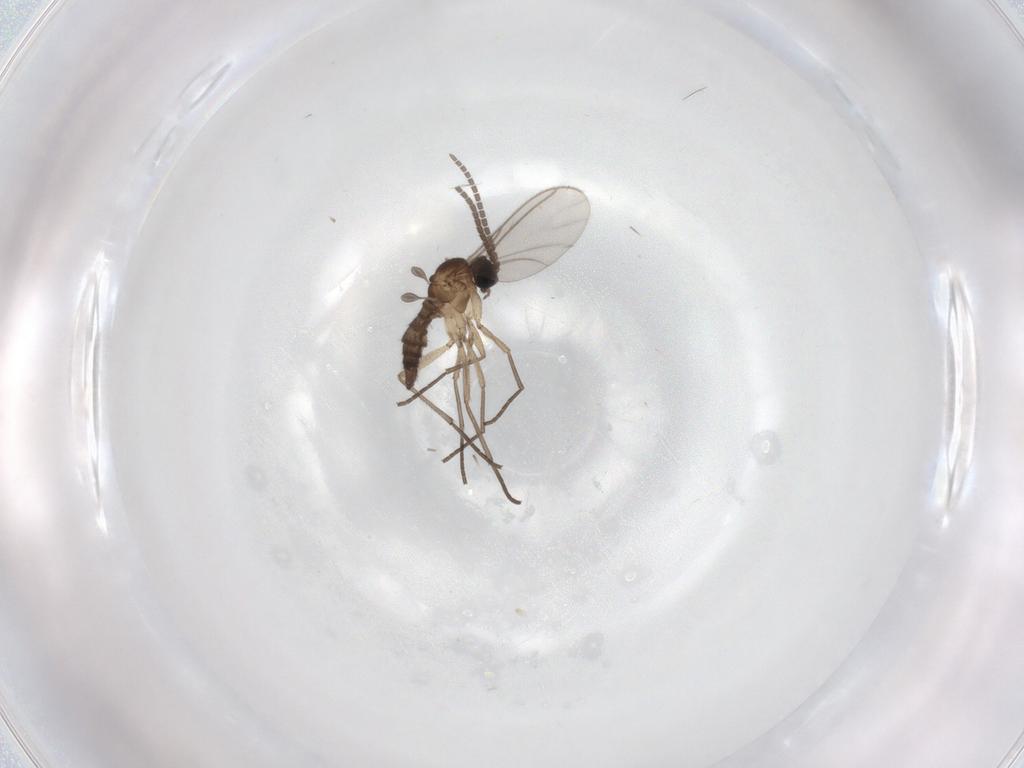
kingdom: Animalia
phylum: Arthropoda
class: Insecta
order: Diptera
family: Sciaridae
